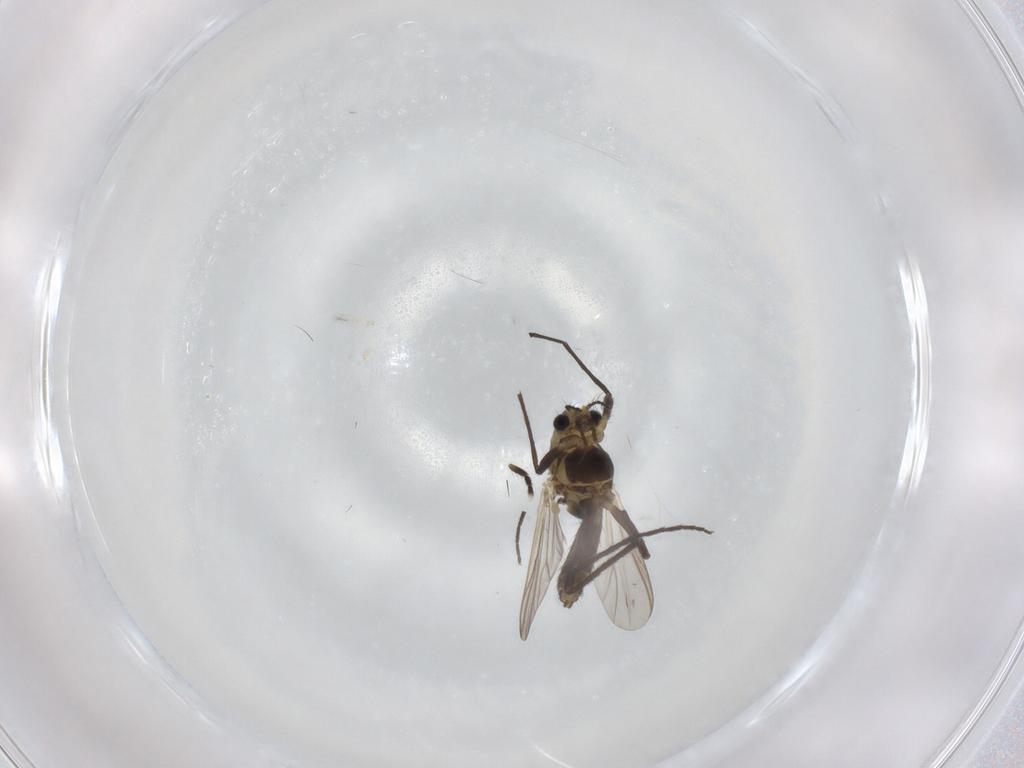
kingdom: Animalia
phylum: Arthropoda
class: Insecta
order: Diptera
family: Chironomidae
